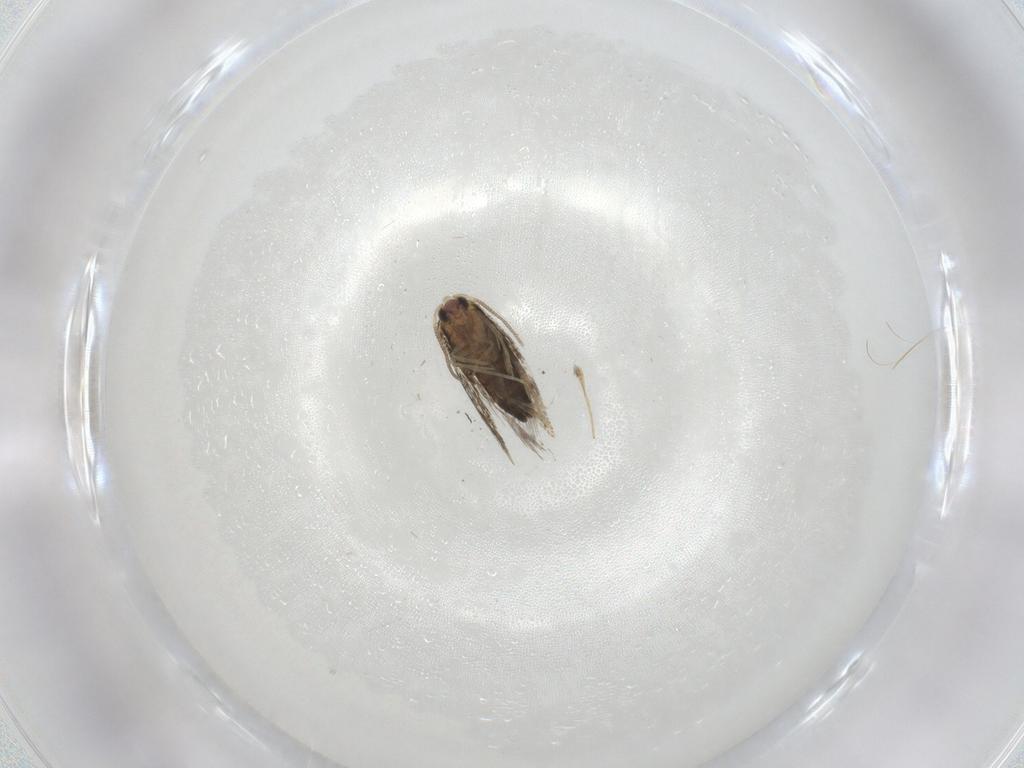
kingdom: Animalia
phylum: Arthropoda
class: Insecta
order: Lepidoptera
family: Nepticulidae
